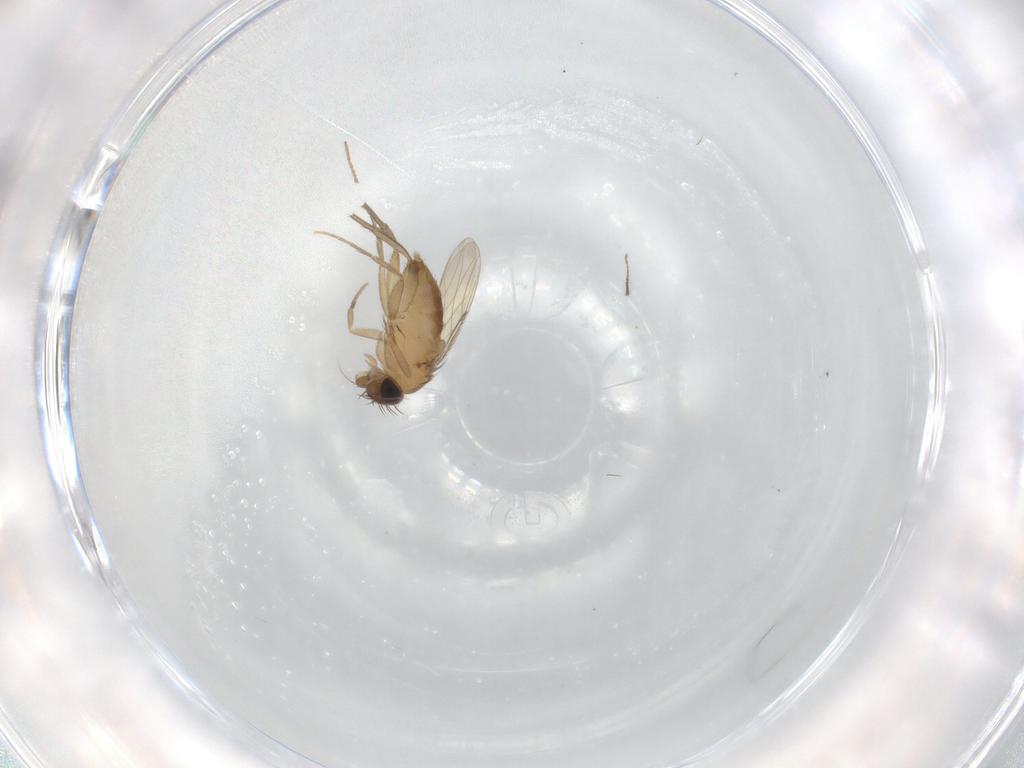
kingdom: Animalia
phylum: Arthropoda
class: Insecta
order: Diptera
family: Phoridae
